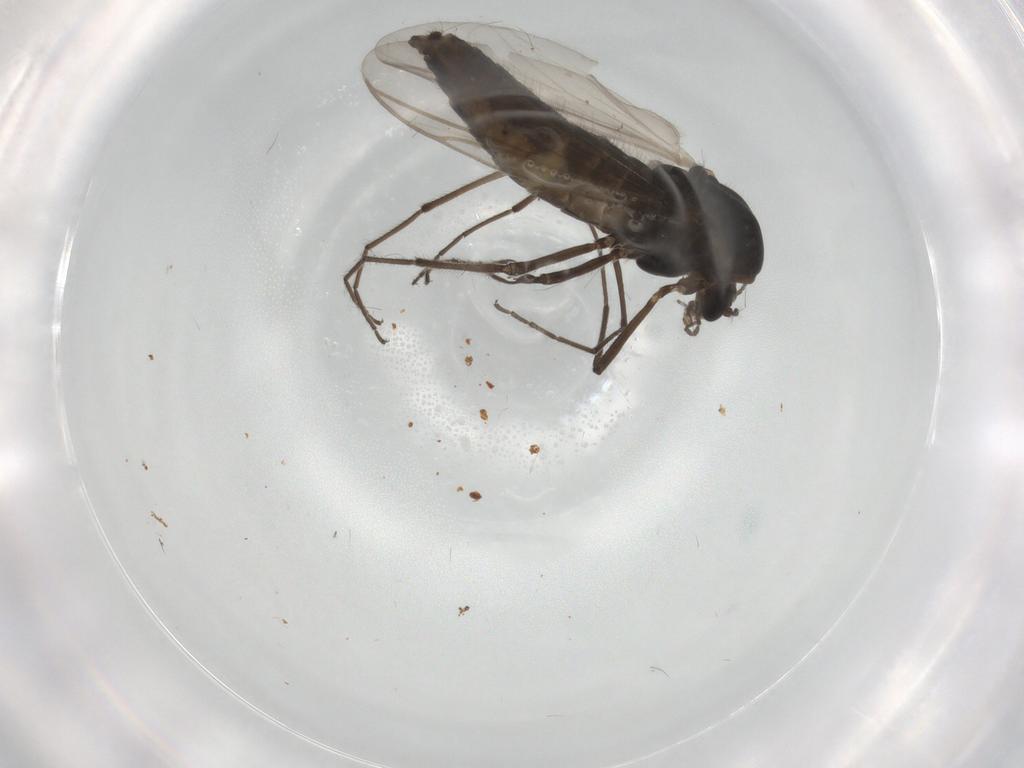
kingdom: Animalia
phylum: Arthropoda
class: Insecta
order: Diptera
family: Chironomidae
